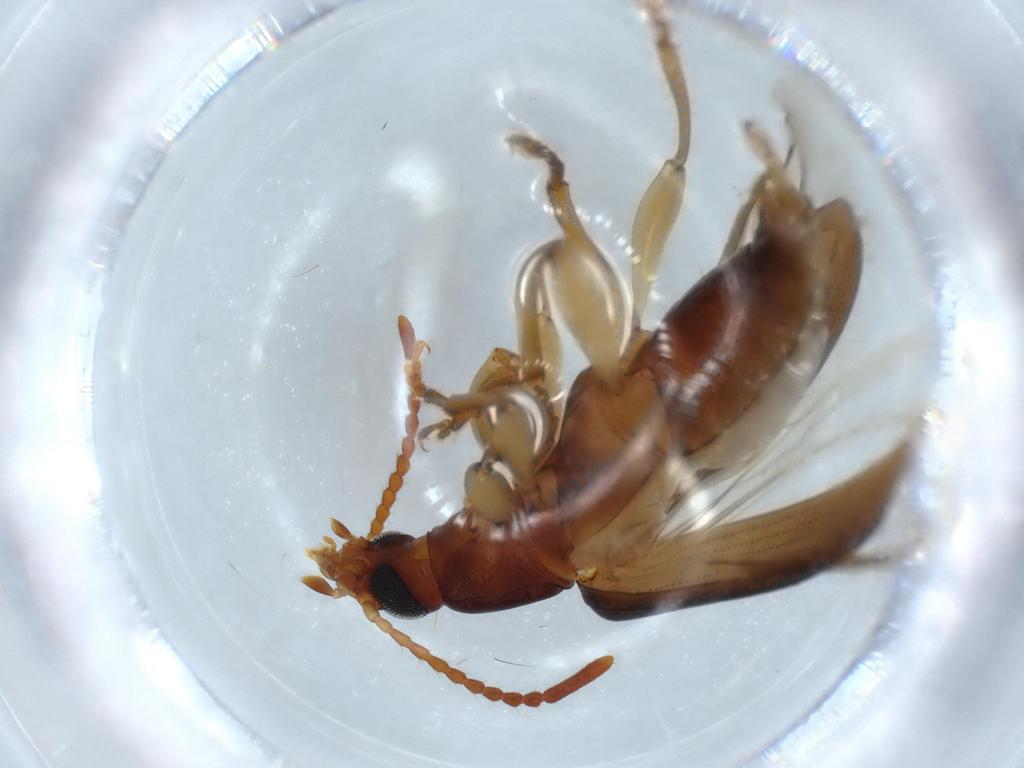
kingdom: Animalia
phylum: Arthropoda
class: Insecta
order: Coleoptera
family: Tenebrionidae
